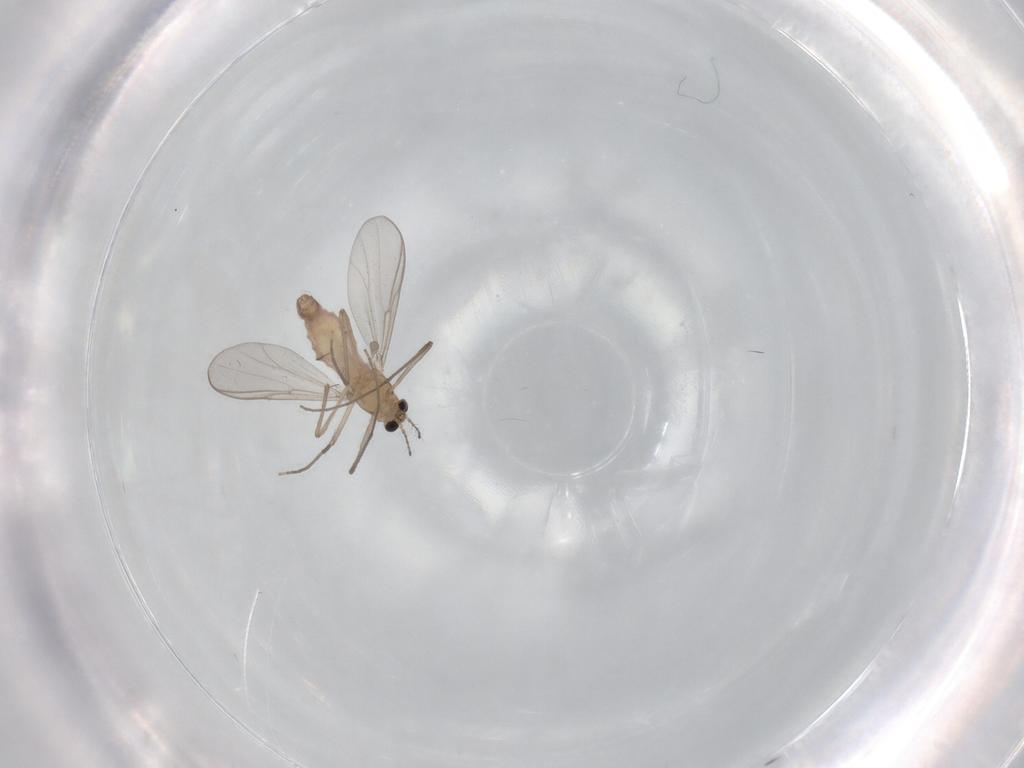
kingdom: Animalia
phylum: Arthropoda
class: Insecta
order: Diptera
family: Chironomidae
